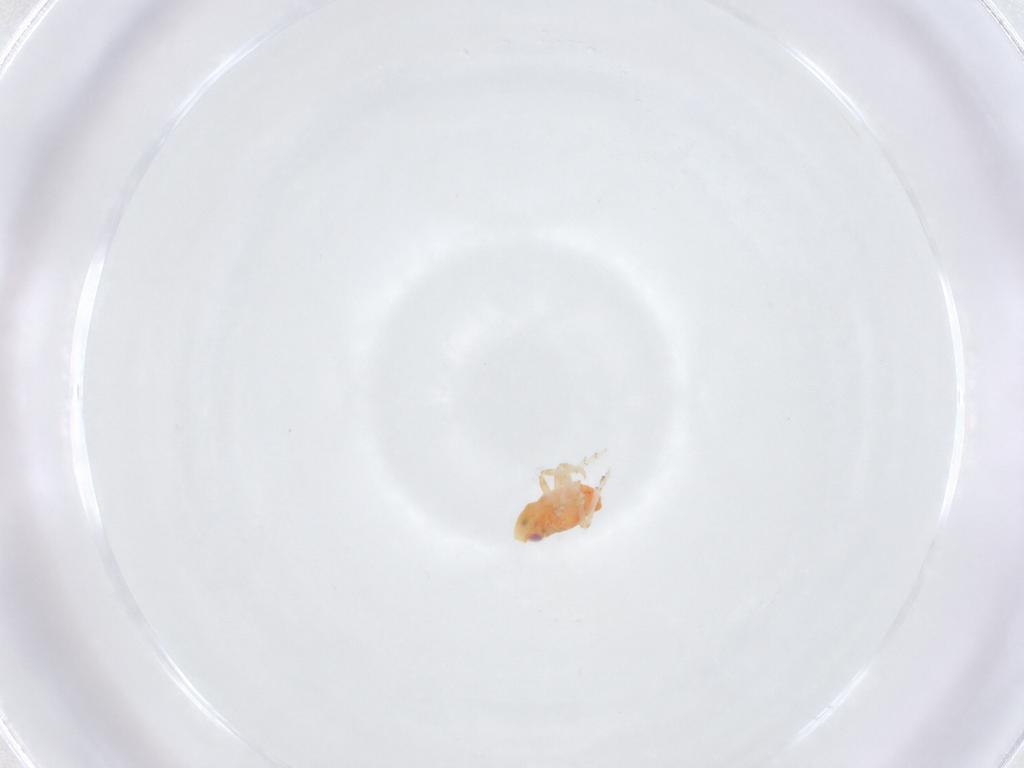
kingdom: Animalia
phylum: Arthropoda
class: Insecta
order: Hemiptera
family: Issidae
